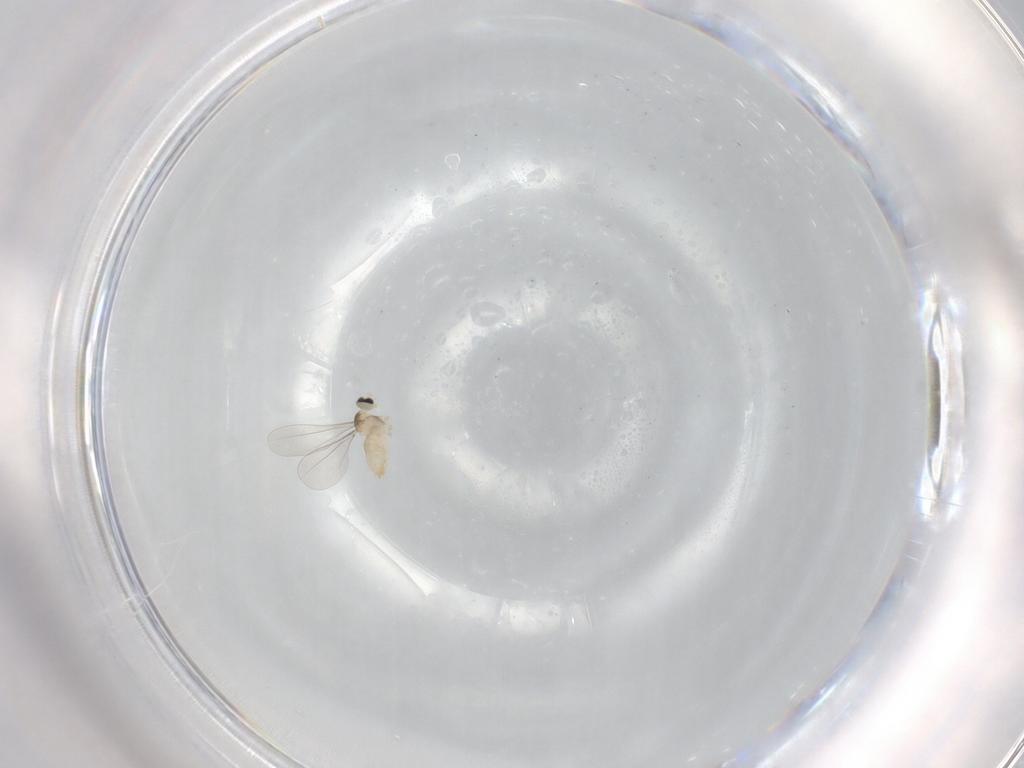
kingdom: Animalia
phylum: Arthropoda
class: Insecta
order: Diptera
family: Cecidomyiidae
